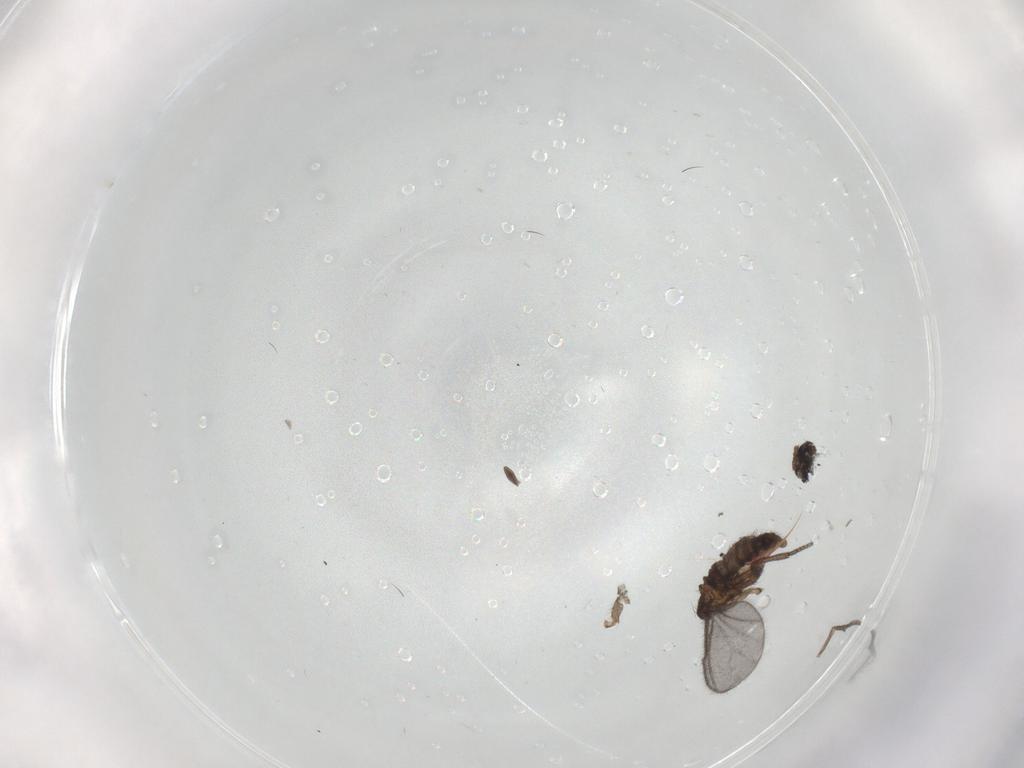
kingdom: Animalia
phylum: Arthropoda
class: Insecta
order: Diptera
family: Sciaridae
